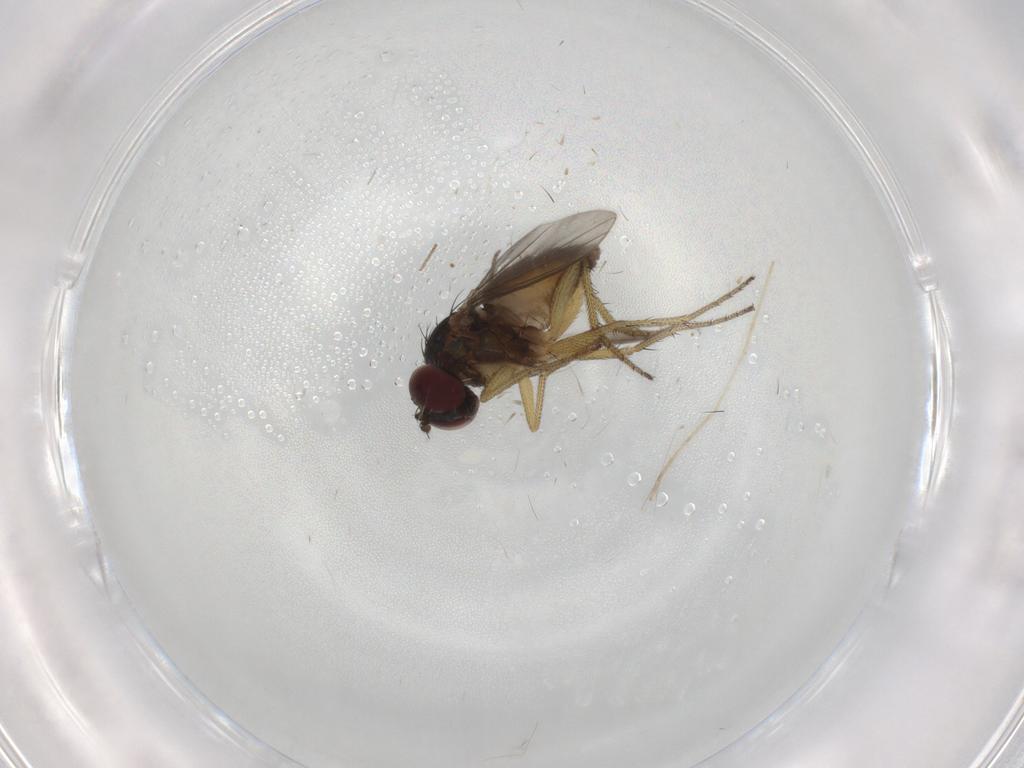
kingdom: Animalia
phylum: Arthropoda
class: Insecta
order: Diptera
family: Dolichopodidae
